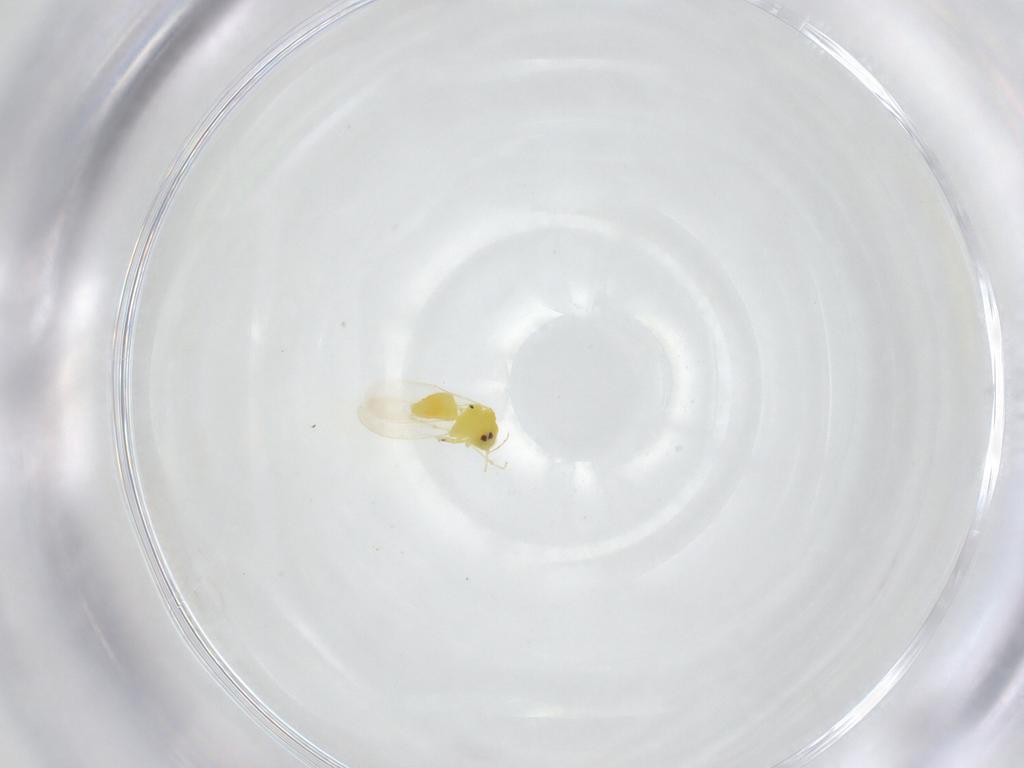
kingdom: Animalia
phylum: Arthropoda
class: Insecta
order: Hemiptera
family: Aleyrodidae
